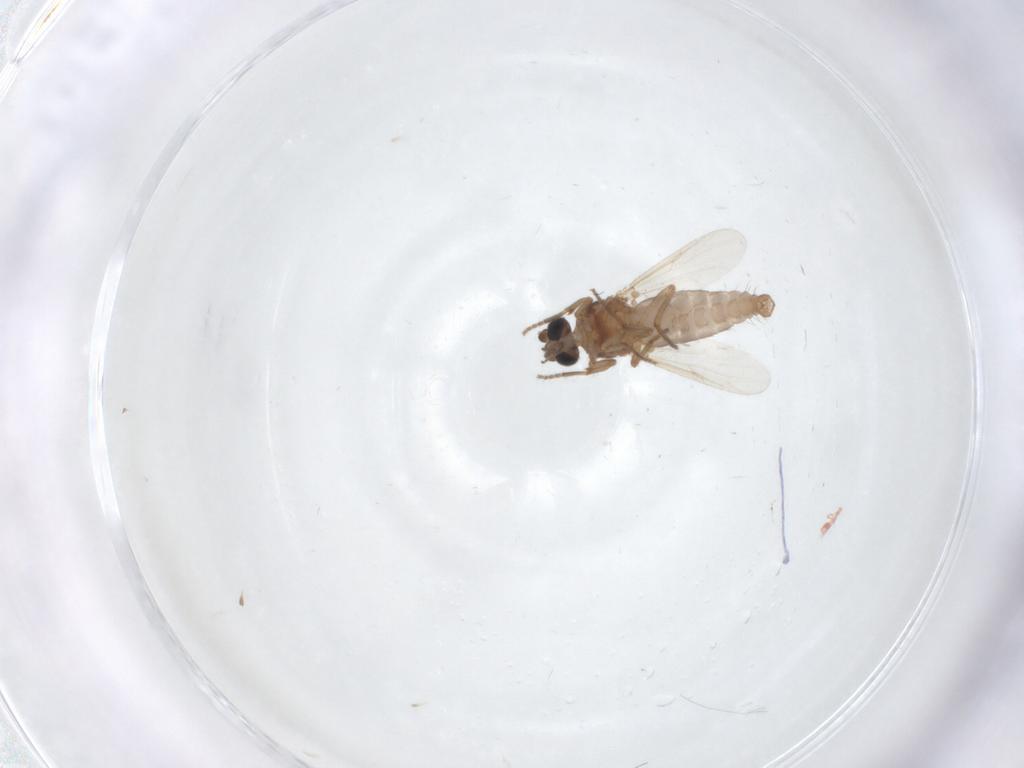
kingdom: Animalia
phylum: Arthropoda
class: Insecta
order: Diptera
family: Ceratopogonidae
